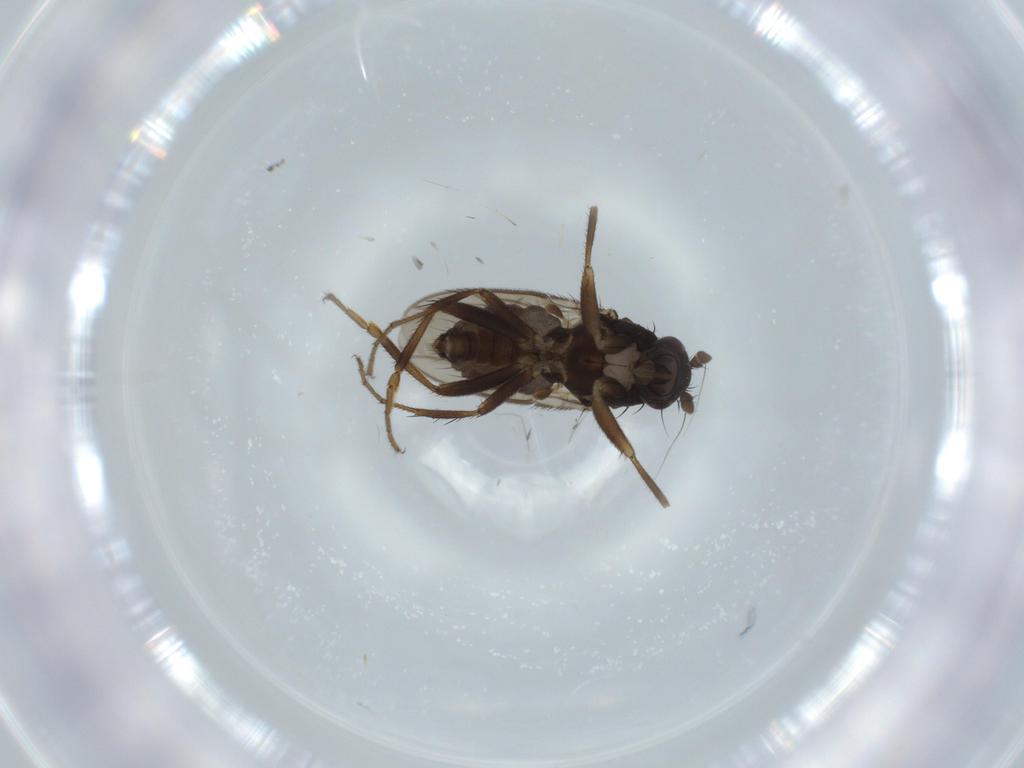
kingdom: Animalia
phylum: Arthropoda
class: Insecta
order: Diptera
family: Sphaeroceridae
